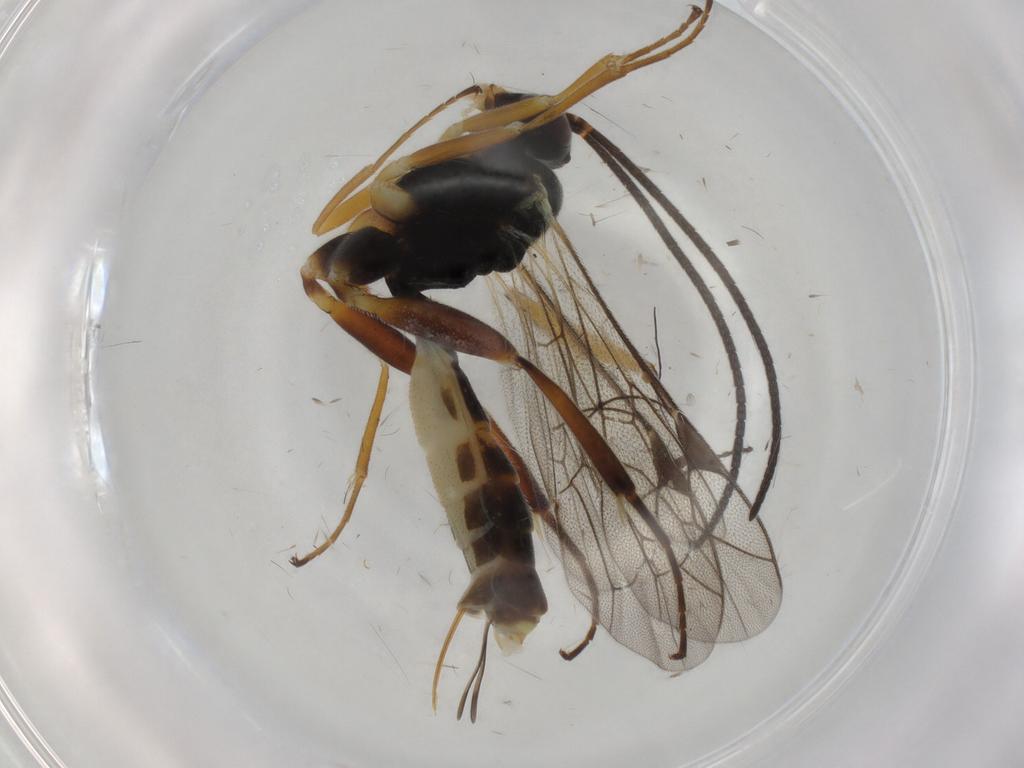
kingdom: Animalia
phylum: Arthropoda
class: Insecta
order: Hymenoptera
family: Ichneumonidae
